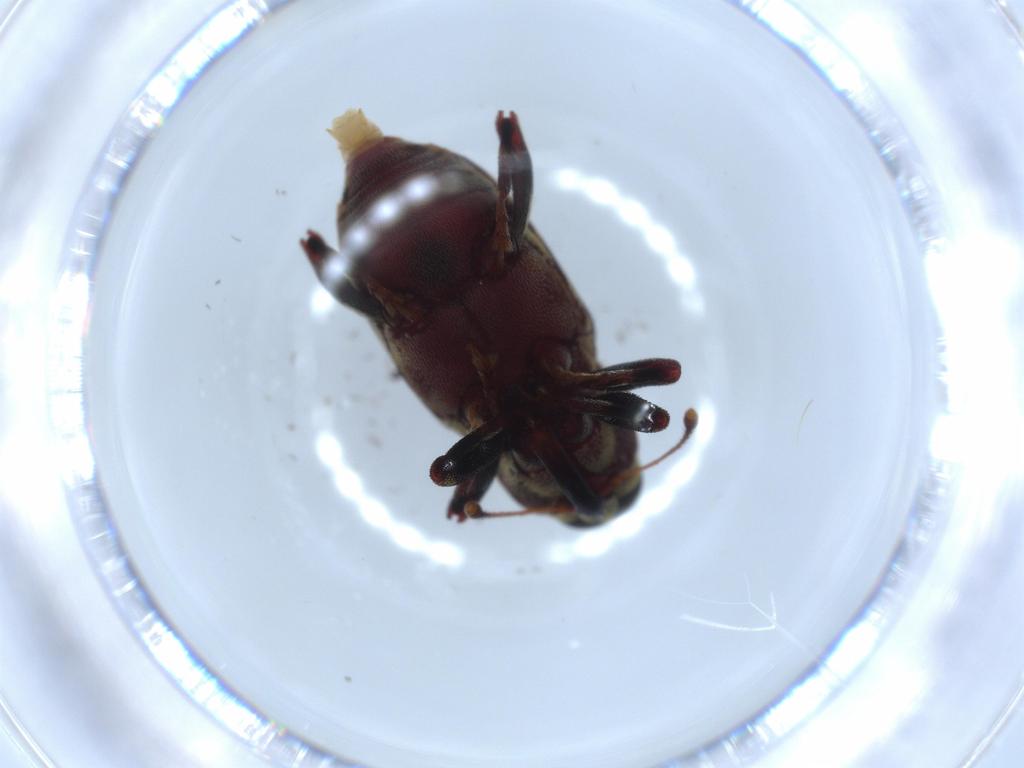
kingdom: Animalia
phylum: Arthropoda
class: Insecta
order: Coleoptera
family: Curculionidae
